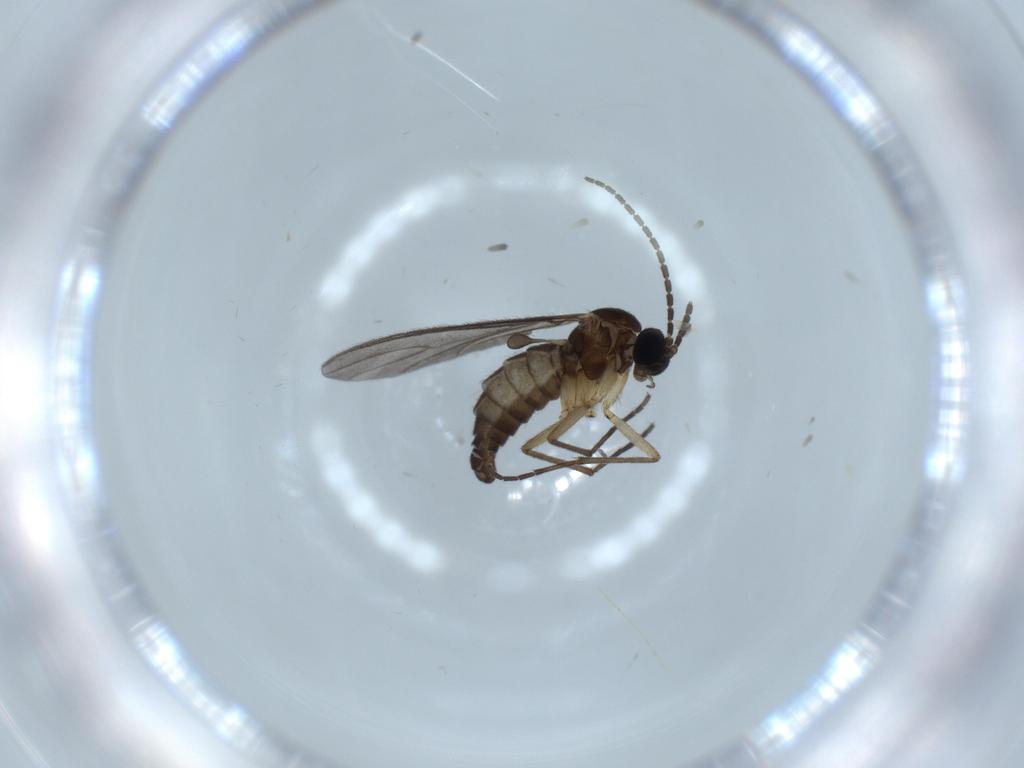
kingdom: Animalia
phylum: Arthropoda
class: Insecta
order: Diptera
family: Sciaridae
